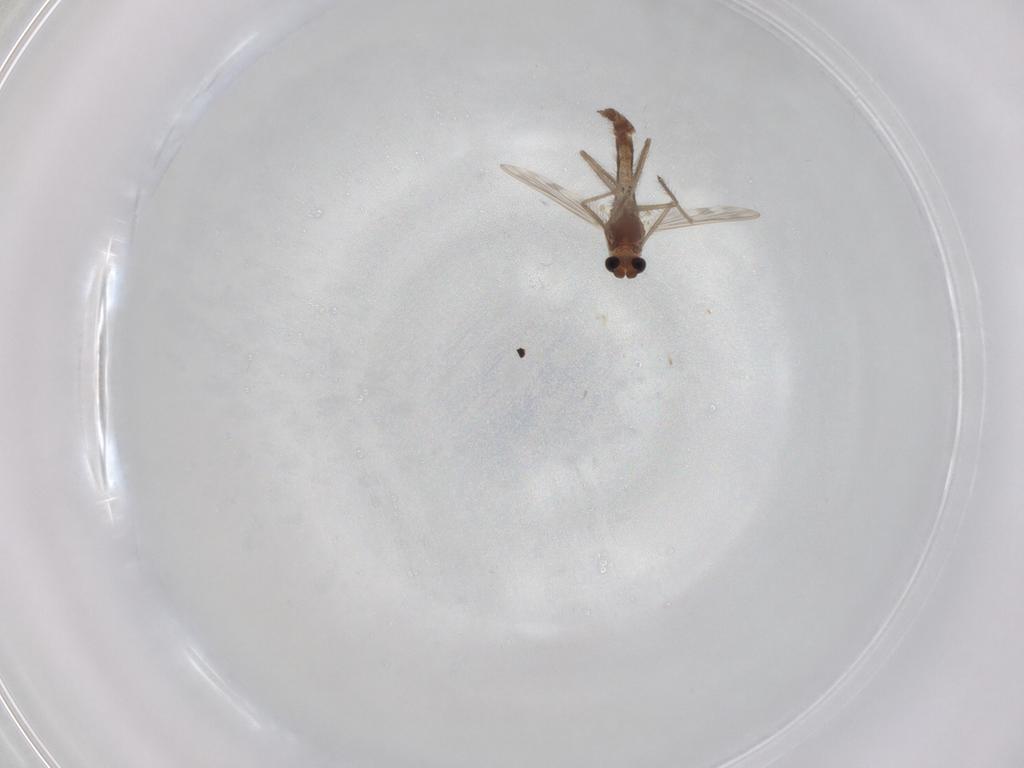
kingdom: Animalia
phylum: Arthropoda
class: Insecta
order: Diptera
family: Chironomidae
